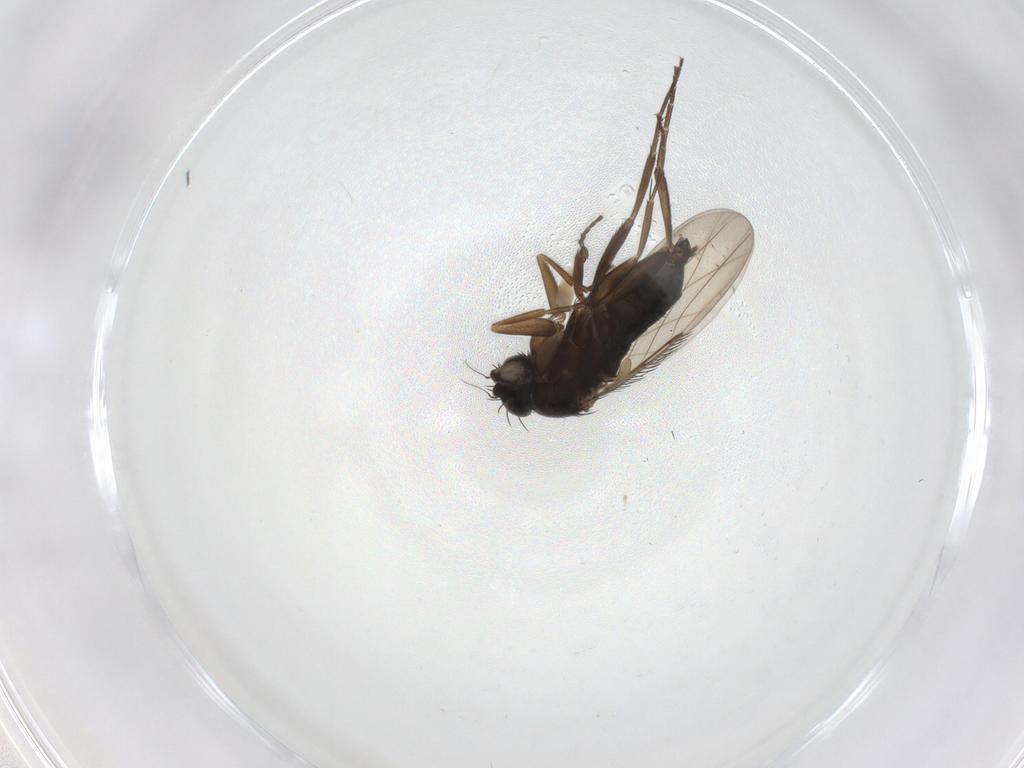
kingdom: Animalia
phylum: Arthropoda
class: Insecta
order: Diptera
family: Phoridae
